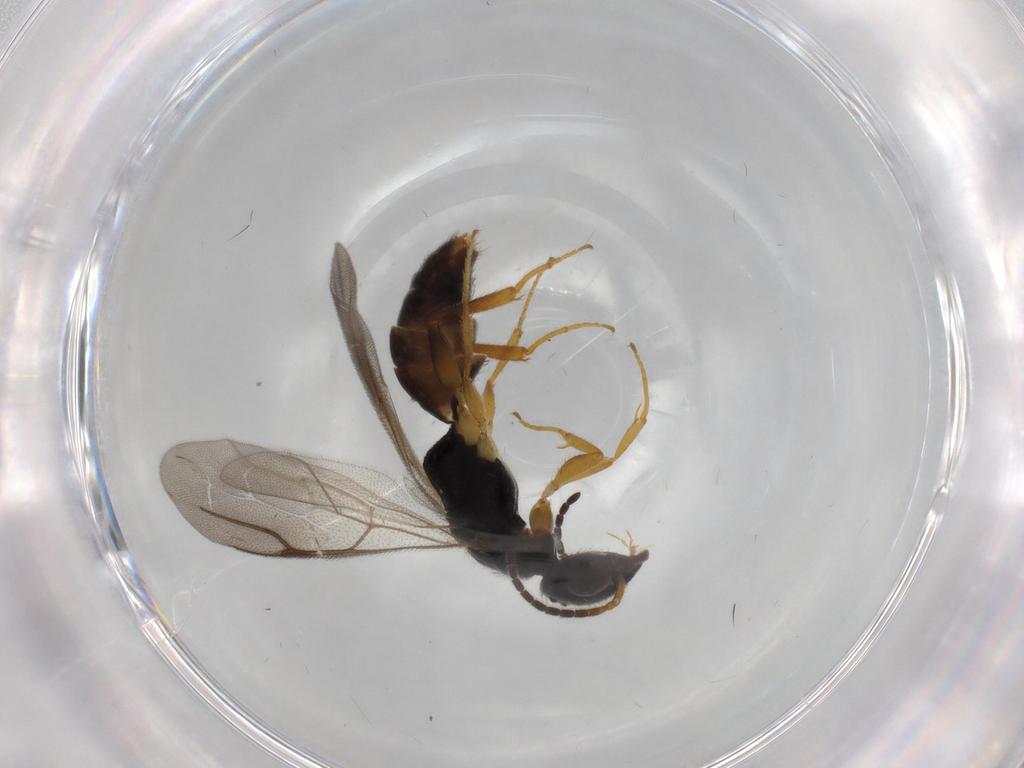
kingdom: Animalia
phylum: Arthropoda
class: Insecta
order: Hymenoptera
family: Bethylidae
